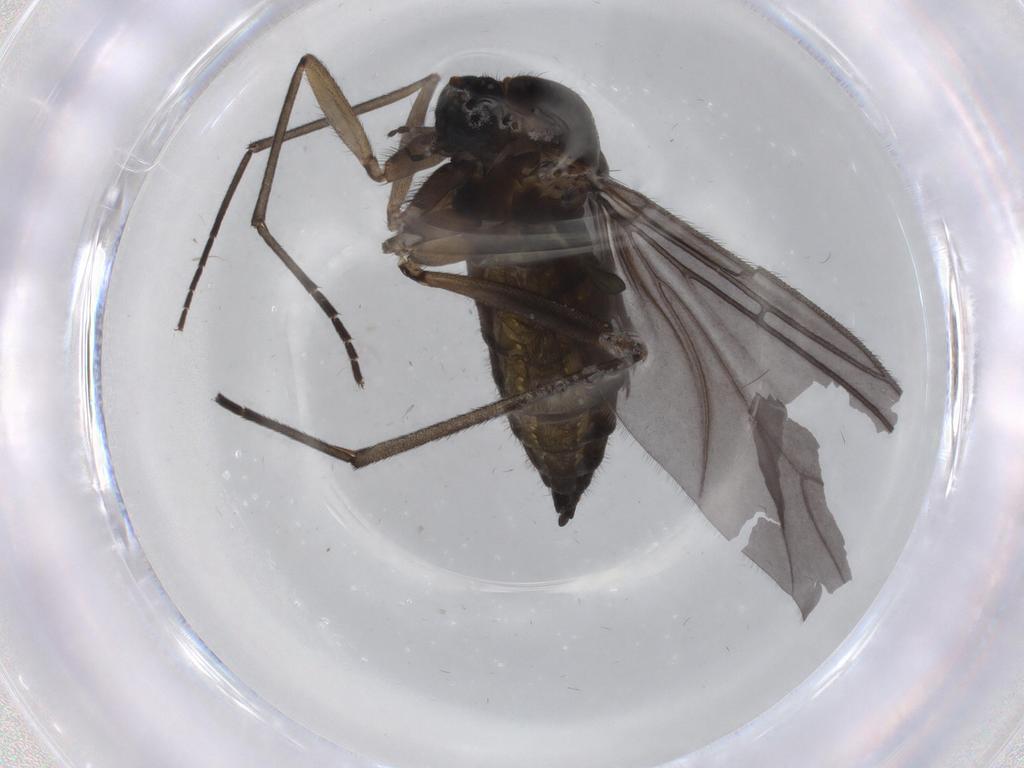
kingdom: Animalia
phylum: Arthropoda
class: Insecta
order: Diptera
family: Sciaridae
